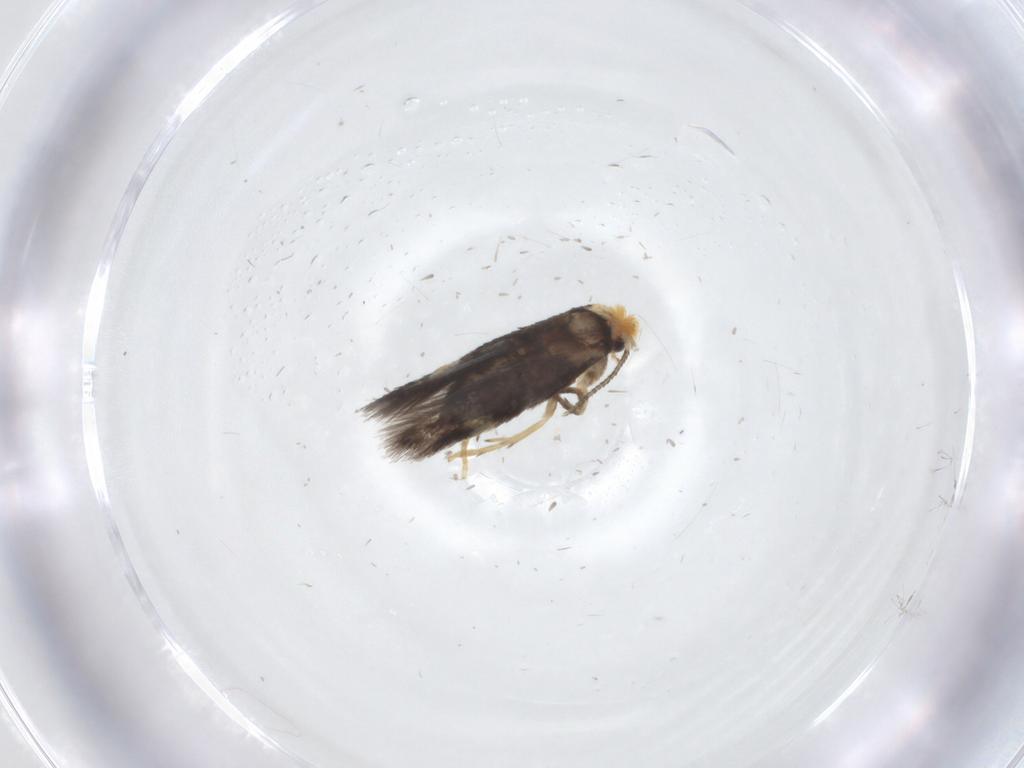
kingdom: Animalia
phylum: Arthropoda
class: Insecta
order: Lepidoptera
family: Nepticulidae
